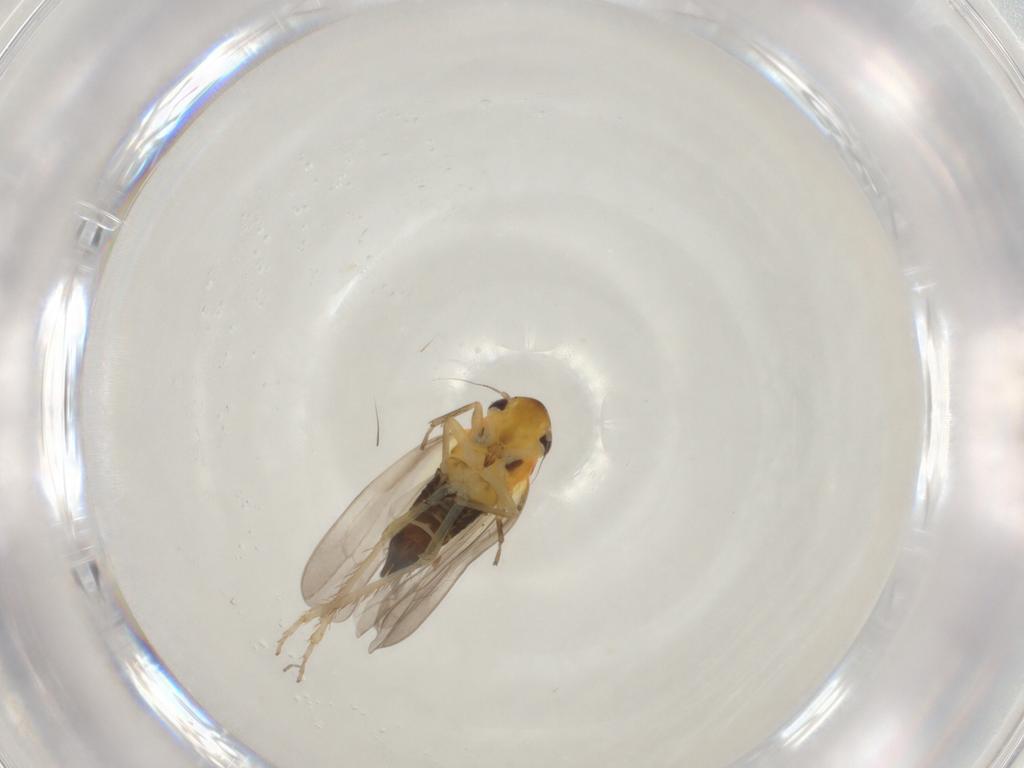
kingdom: Animalia
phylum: Arthropoda
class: Insecta
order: Hemiptera
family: Cicadellidae
